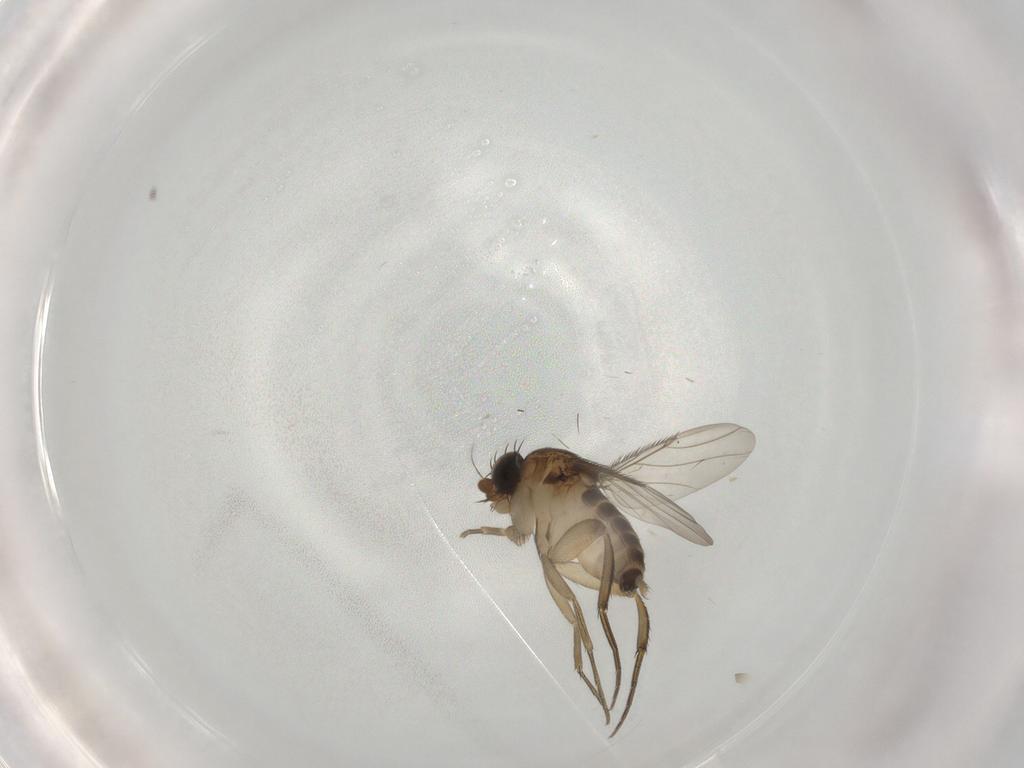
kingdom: Animalia
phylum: Arthropoda
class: Insecta
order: Diptera
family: Phoridae
